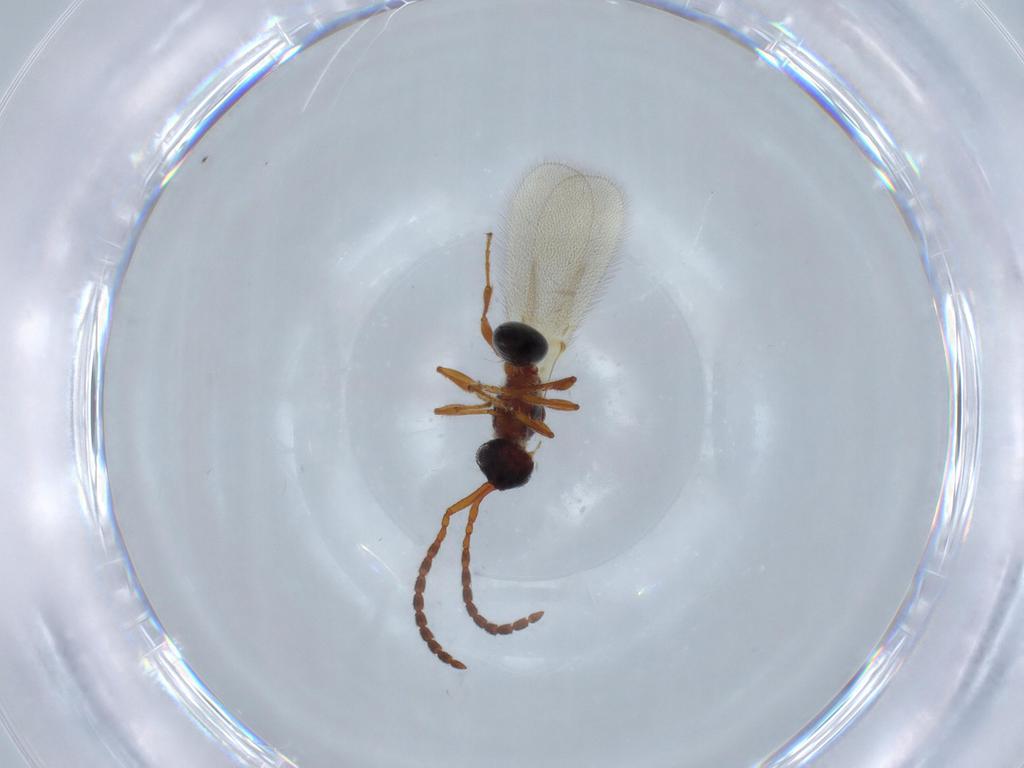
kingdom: Animalia
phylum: Arthropoda
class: Insecta
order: Hymenoptera
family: Diapriidae
